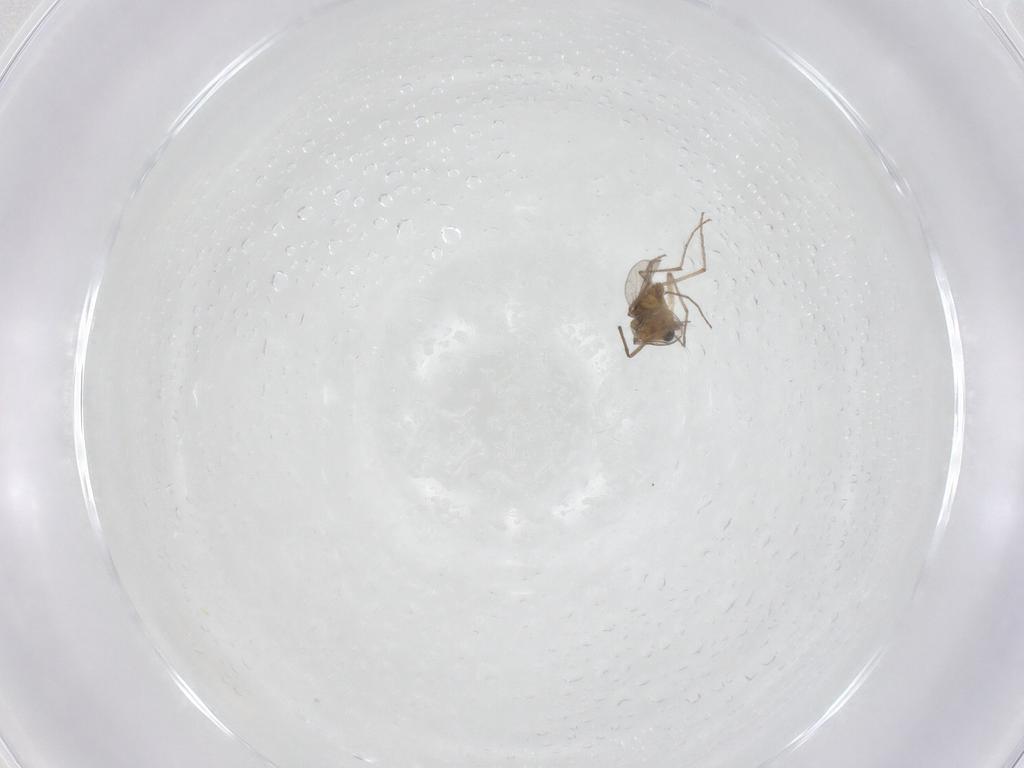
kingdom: Animalia
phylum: Arthropoda
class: Insecta
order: Diptera
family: Chironomidae
